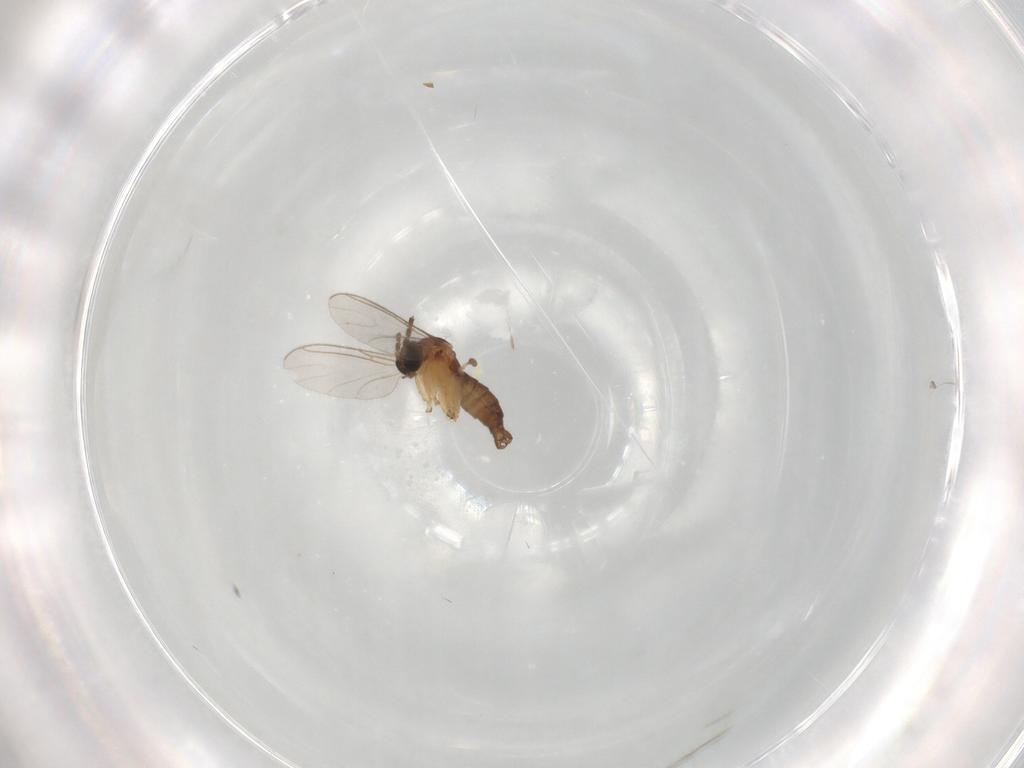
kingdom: Animalia
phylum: Arthropoda
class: Insecta
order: Diptera
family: Sciaridae
